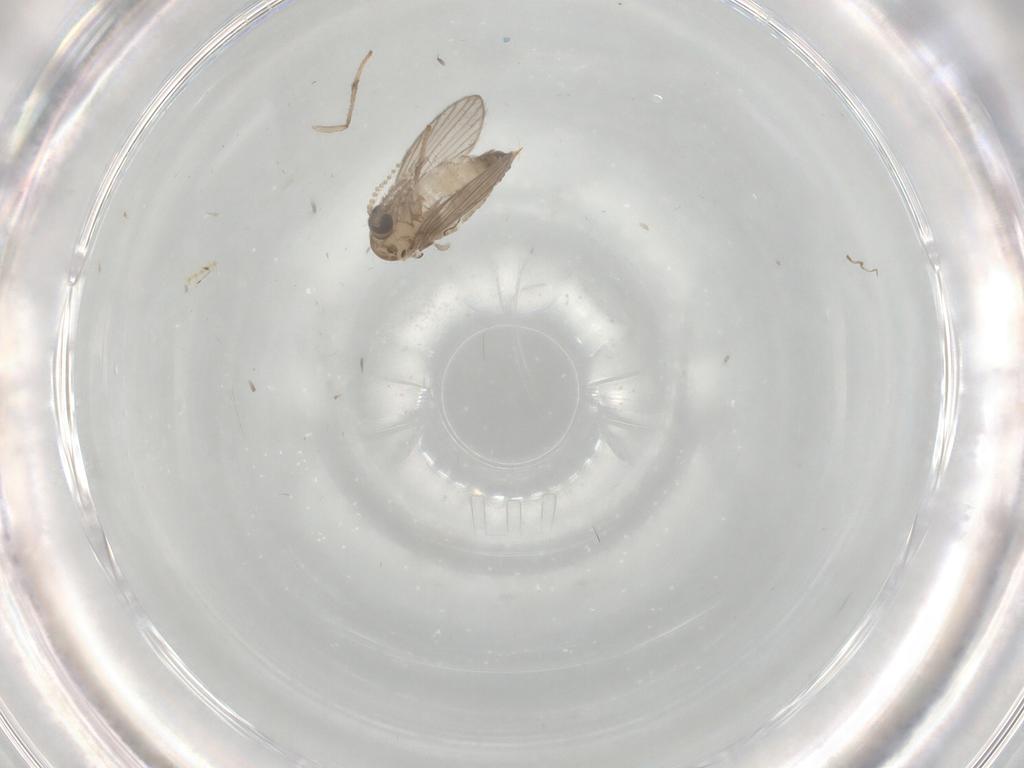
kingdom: Animalia
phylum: Arthropoda
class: Insecta
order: Diptera
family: Psychodidae
